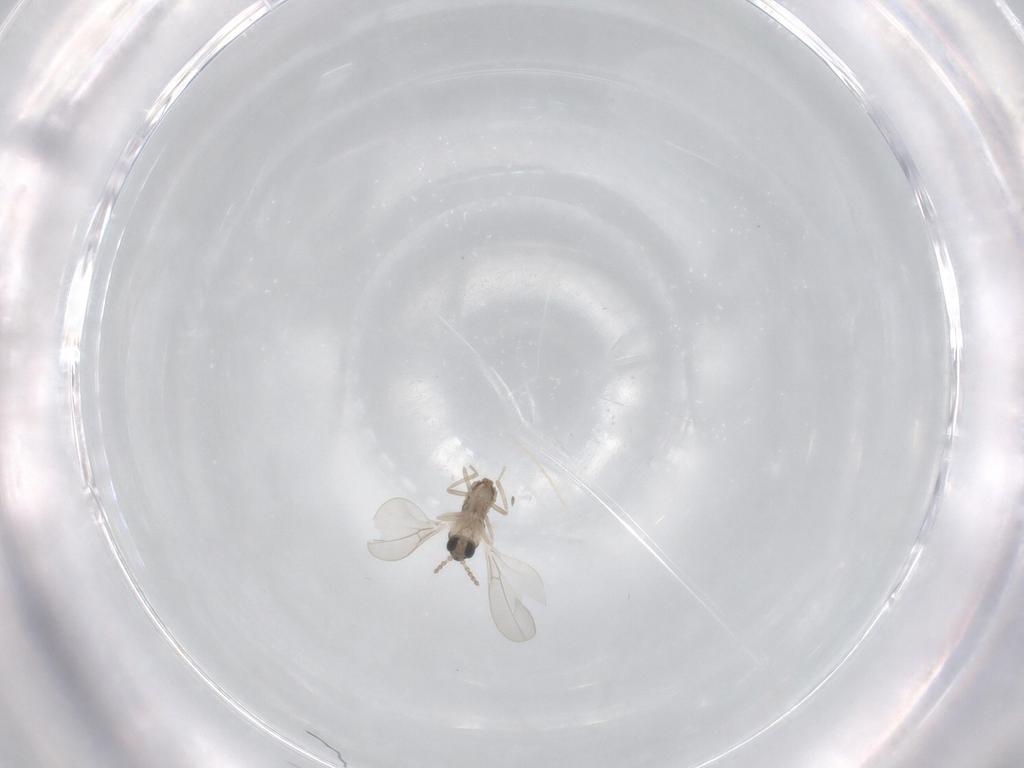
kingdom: Animalia
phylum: Arthropoda
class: Insecta
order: Diptera
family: Cecidomyiidae
